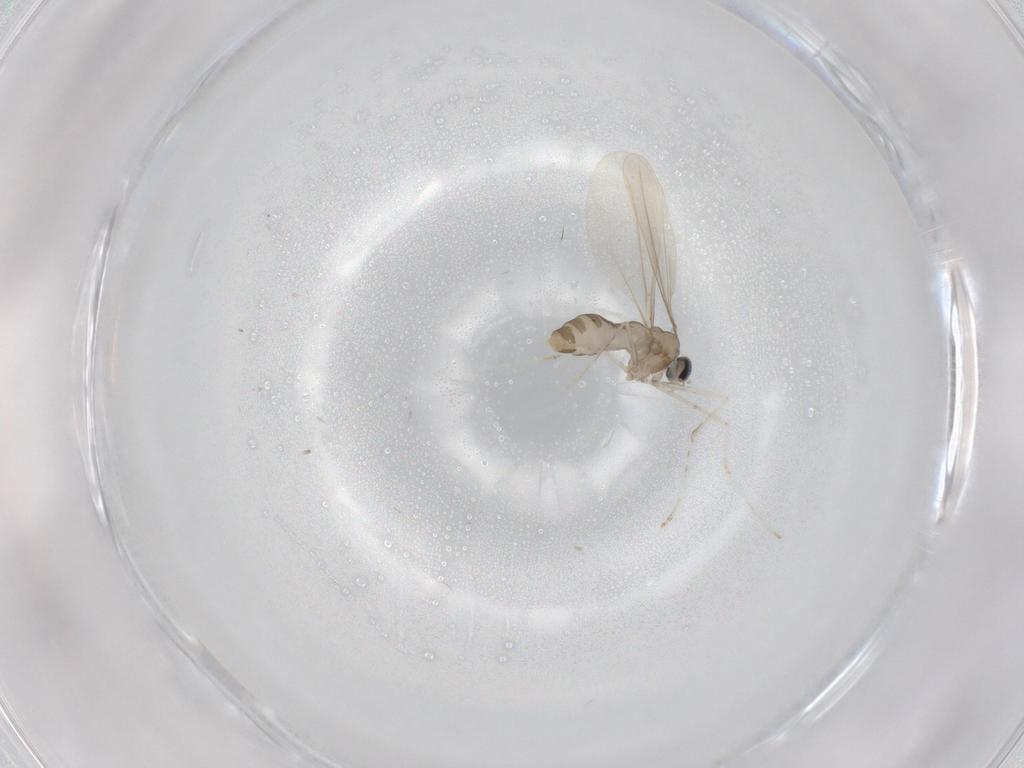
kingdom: Animalia
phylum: Arthropoda
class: Insecta
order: Diptera
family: Cecidomyiidae
